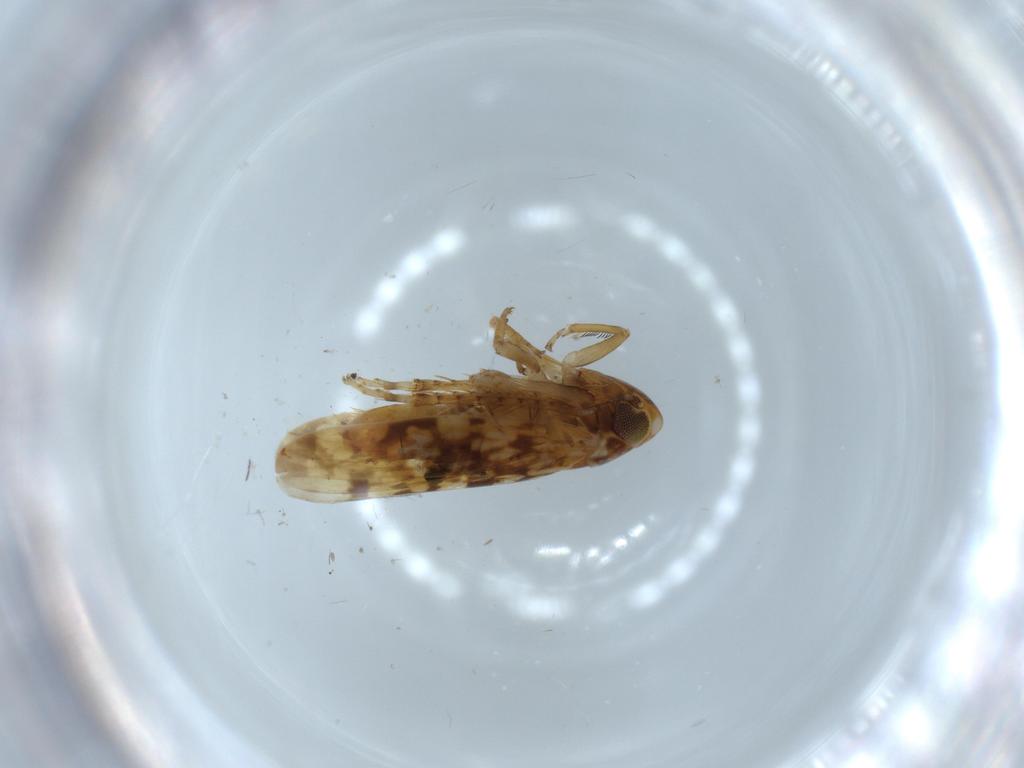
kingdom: Animalia
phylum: Arthropoda
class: Insecta
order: Hemiptera
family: Cicadellidae
